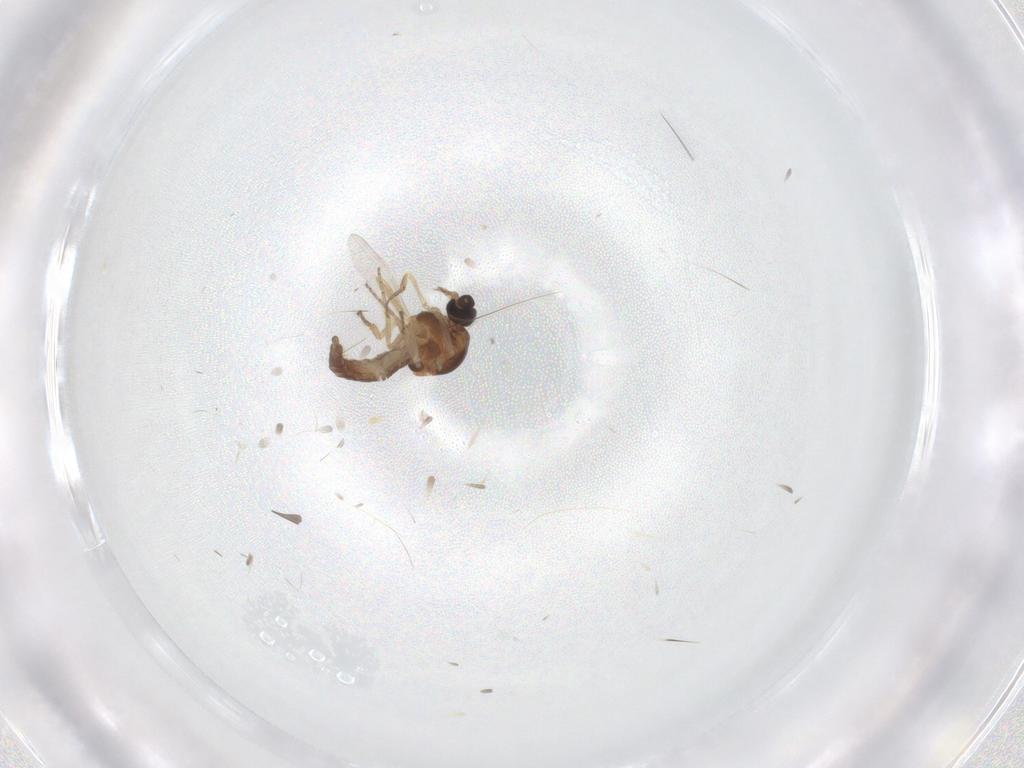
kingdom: Animalia
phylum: Arthropoda
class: Insecta
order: Diptera
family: Ceratopogonidae
